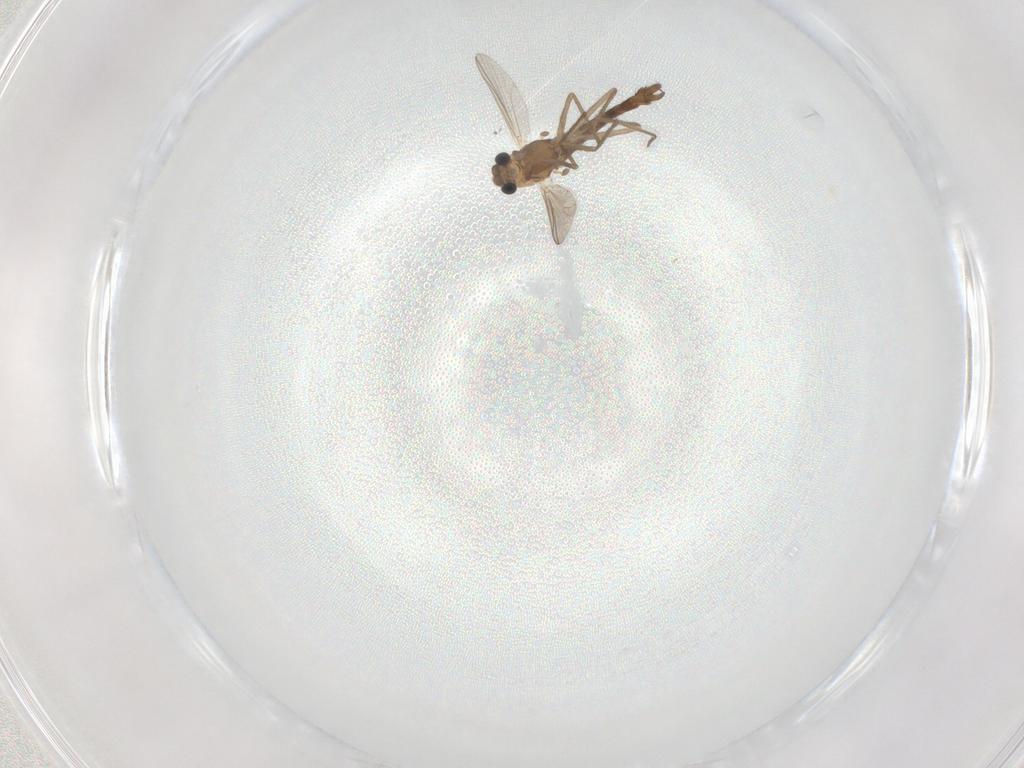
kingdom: Animalia
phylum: Arthropoda
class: Insecta
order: Diptera
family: Chironomidae
